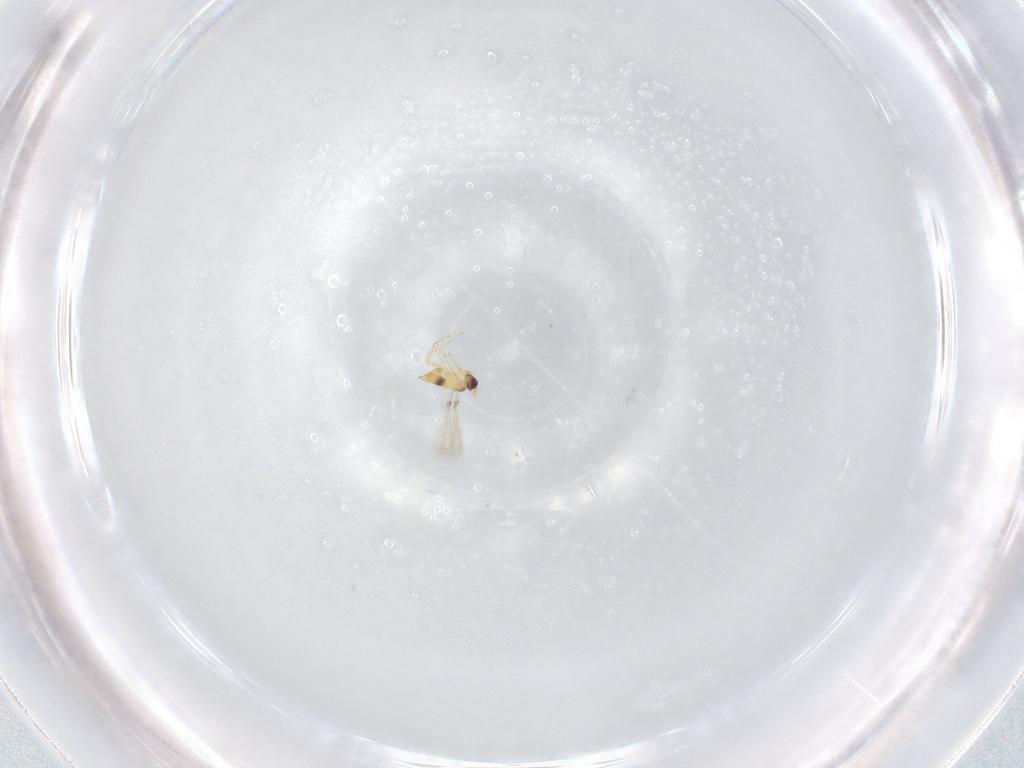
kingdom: Animalia
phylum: Arthropoda
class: Insecta
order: Hymenoptera
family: Mymaridae
